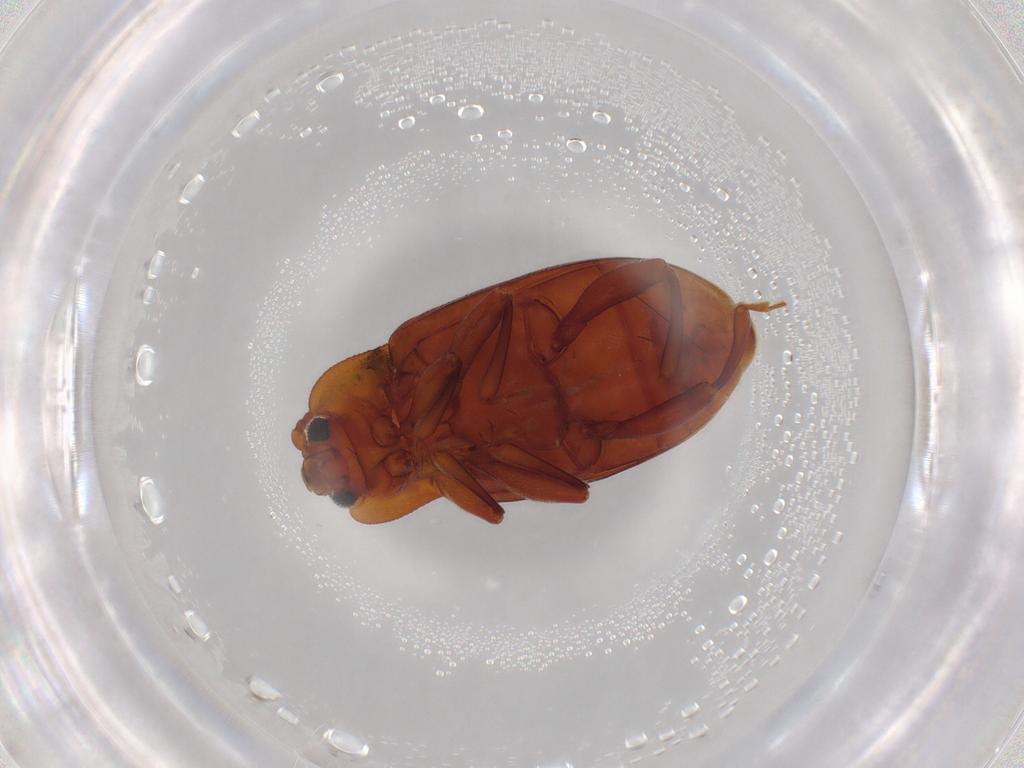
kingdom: Animalia
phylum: Arthropoda
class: Insecta
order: Coleoptera
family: Endomychidae
